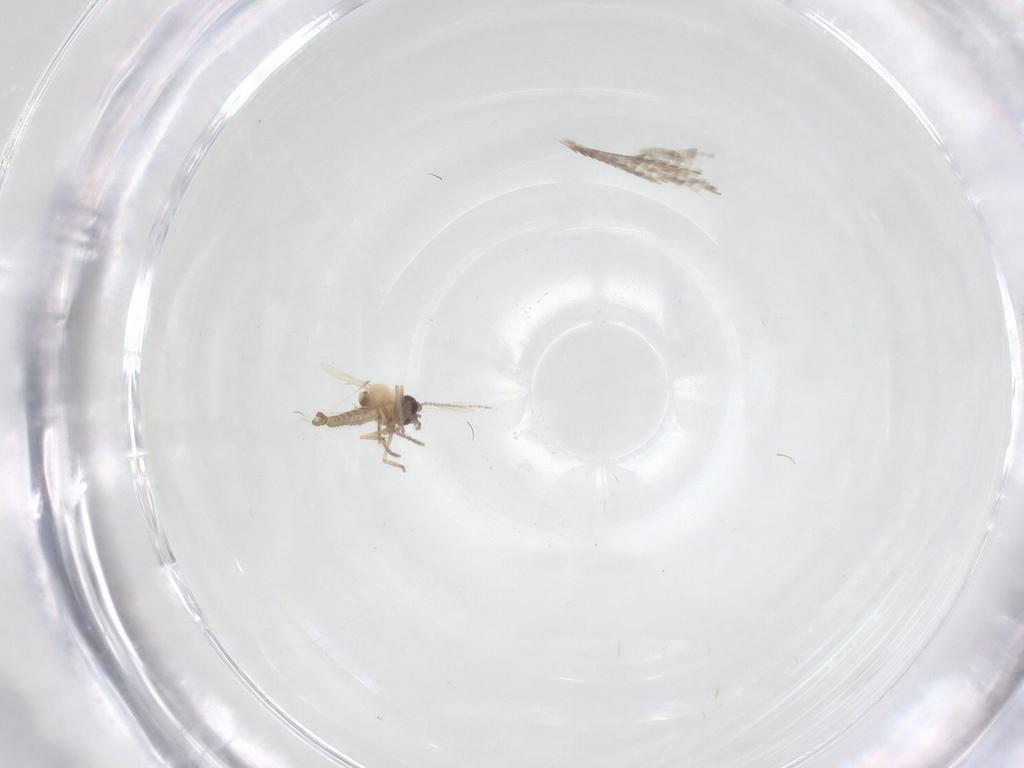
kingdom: Animalia
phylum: Arthropoda
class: Insecta
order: Diptera
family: Ceratopogonidae
